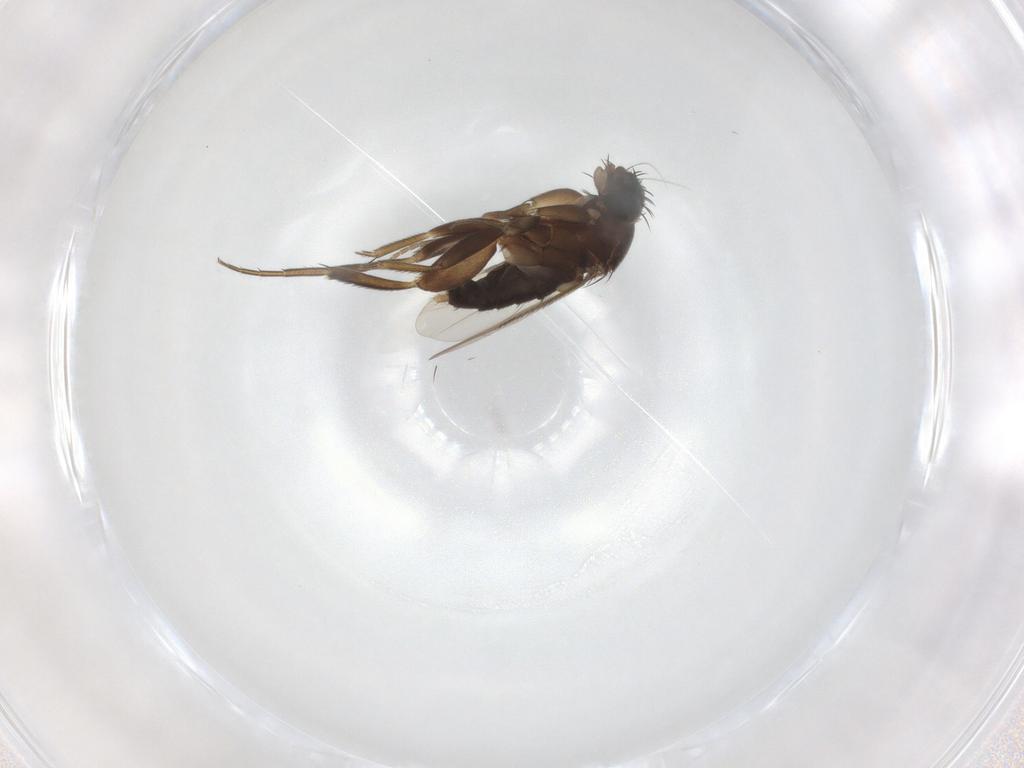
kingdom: Animalia
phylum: Arthropoda
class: Insecta
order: Diptera
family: Phoridae
